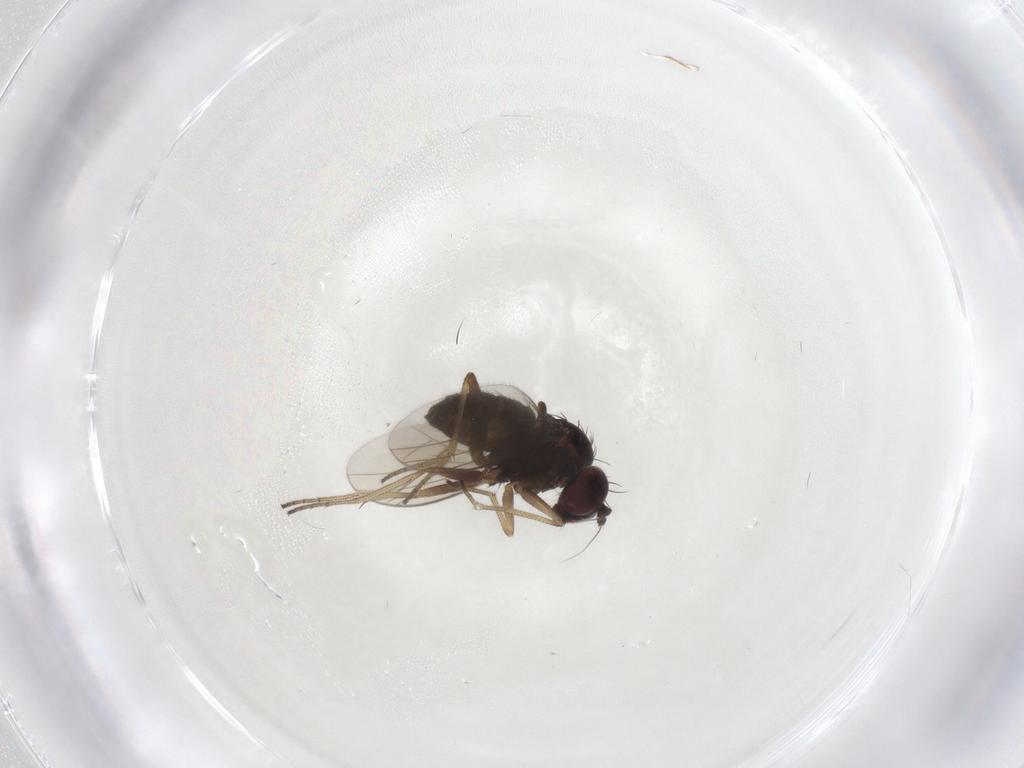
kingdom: Animalia
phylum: Arthropoda
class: Insecta
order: Diptera
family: Dolichopodidae
